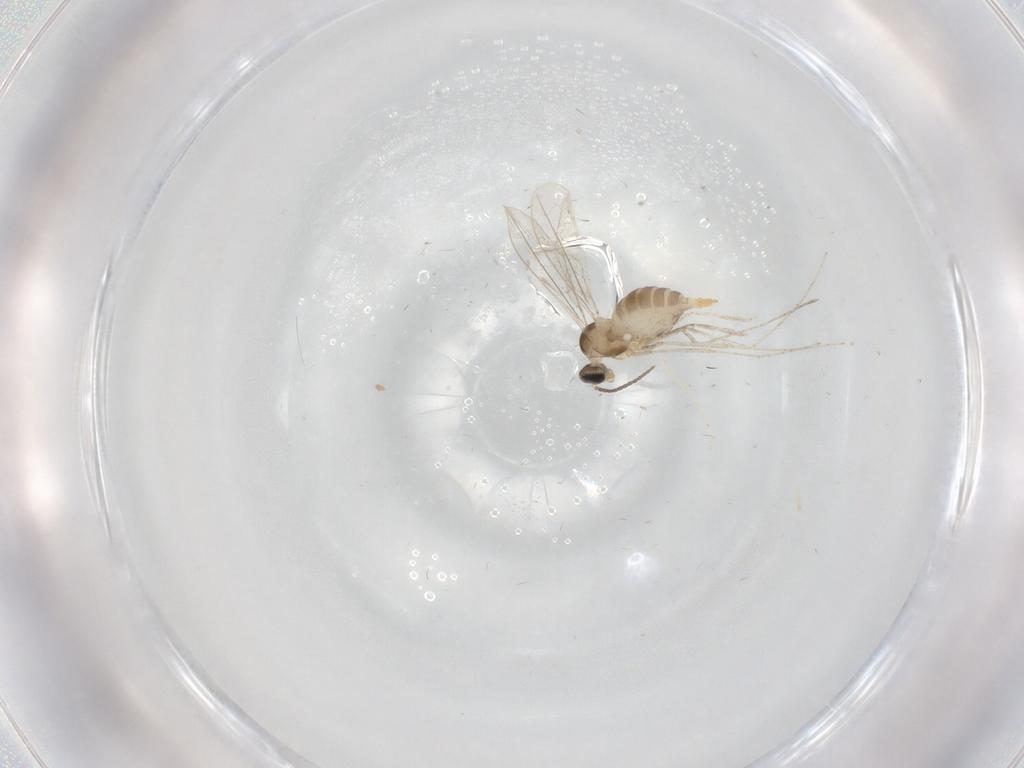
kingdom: Animalia
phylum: Arthropoda
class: Insecta
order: Diptera
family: Cecidomyiidae
